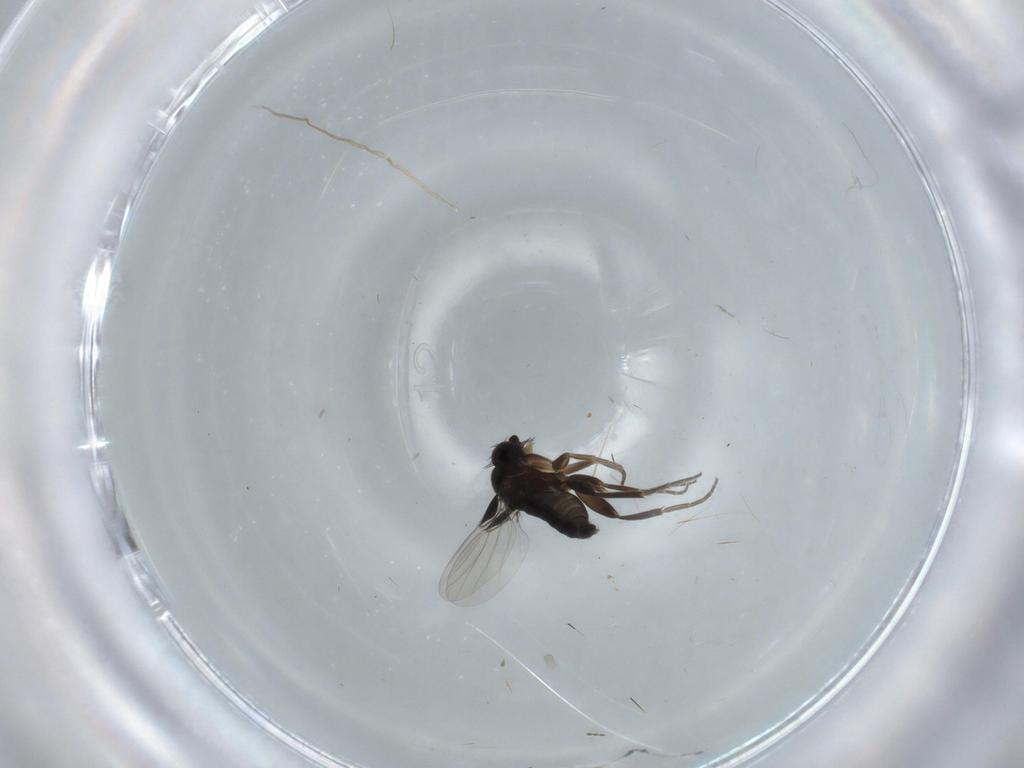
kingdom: Animalia
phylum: Arthropoda
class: Insecta
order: Diptera
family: Phoridae
